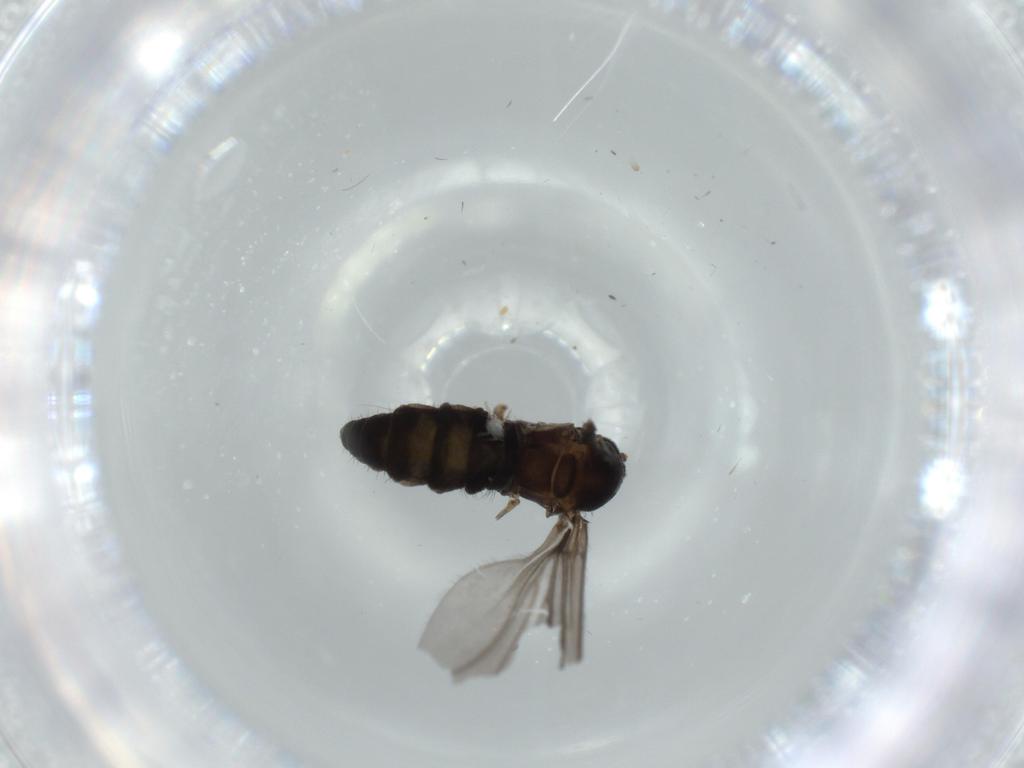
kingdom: Animalia
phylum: Arthropoda
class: Insecta
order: Diptera
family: Sciaridae
